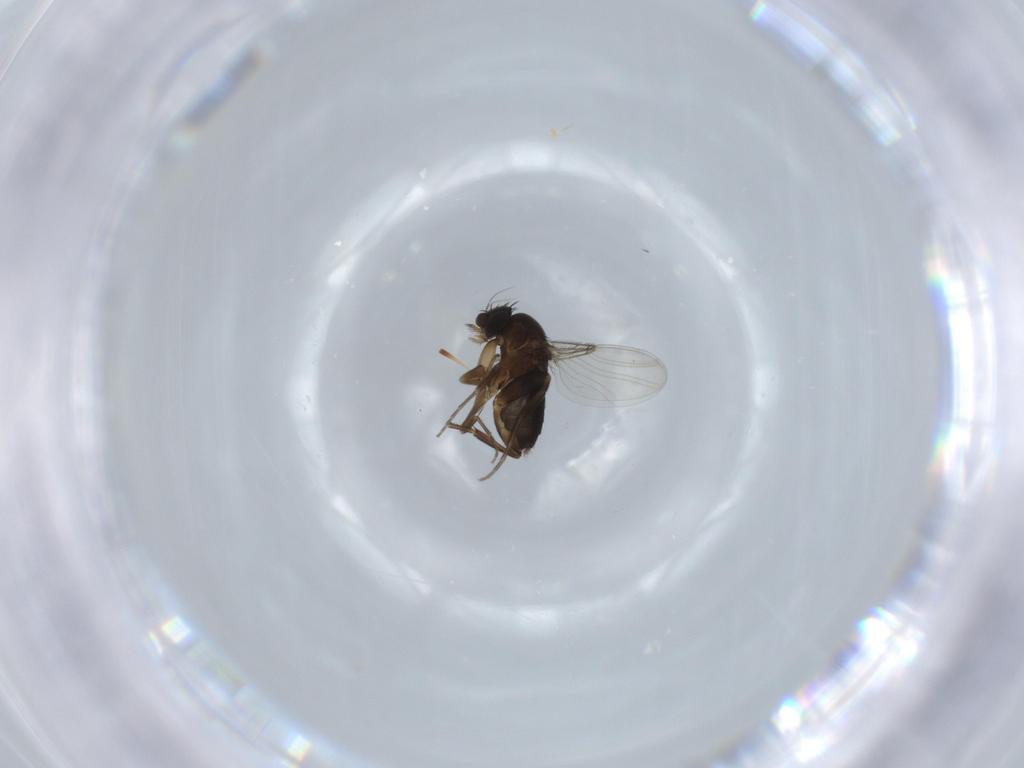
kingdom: Animalia
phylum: Arthropoda
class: Insecta
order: Diptera
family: Phoridae
